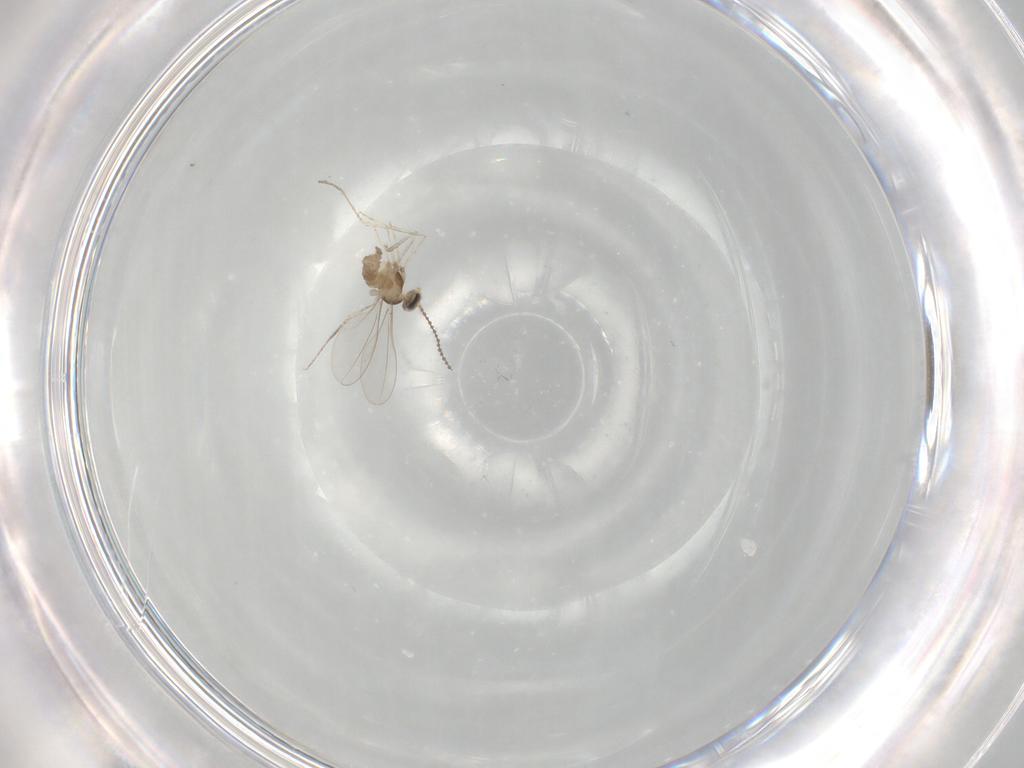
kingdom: Animalia
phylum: Arthropoda
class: Insecta
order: Diptera
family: Cecidomyiidae
